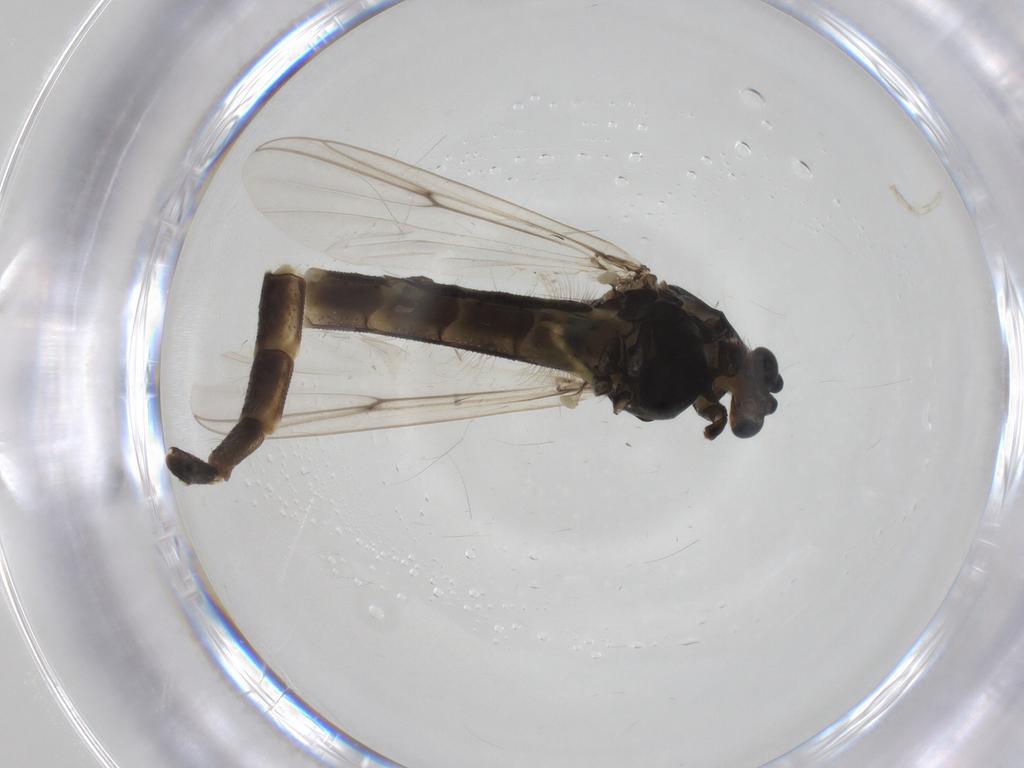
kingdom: Animalia
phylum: Arthropoda
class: Insecta
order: Diptera
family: Chironomidae
